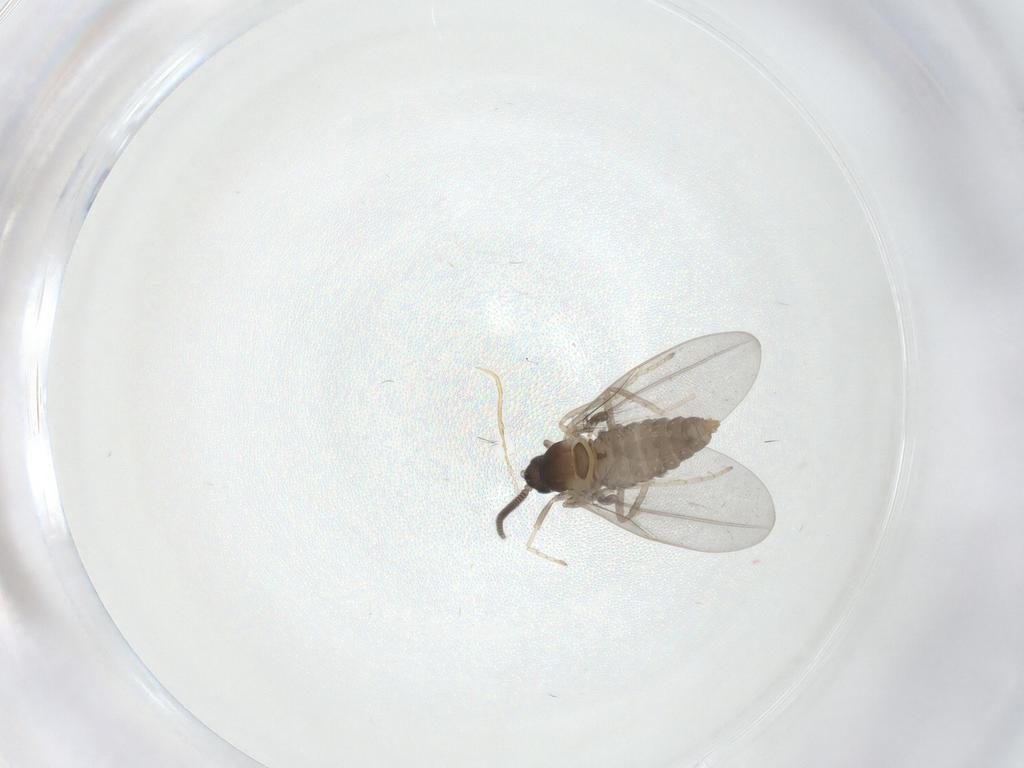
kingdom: Animalia
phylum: Arthropoda
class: Insecta
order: Diptera
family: Cecidomyiidae
